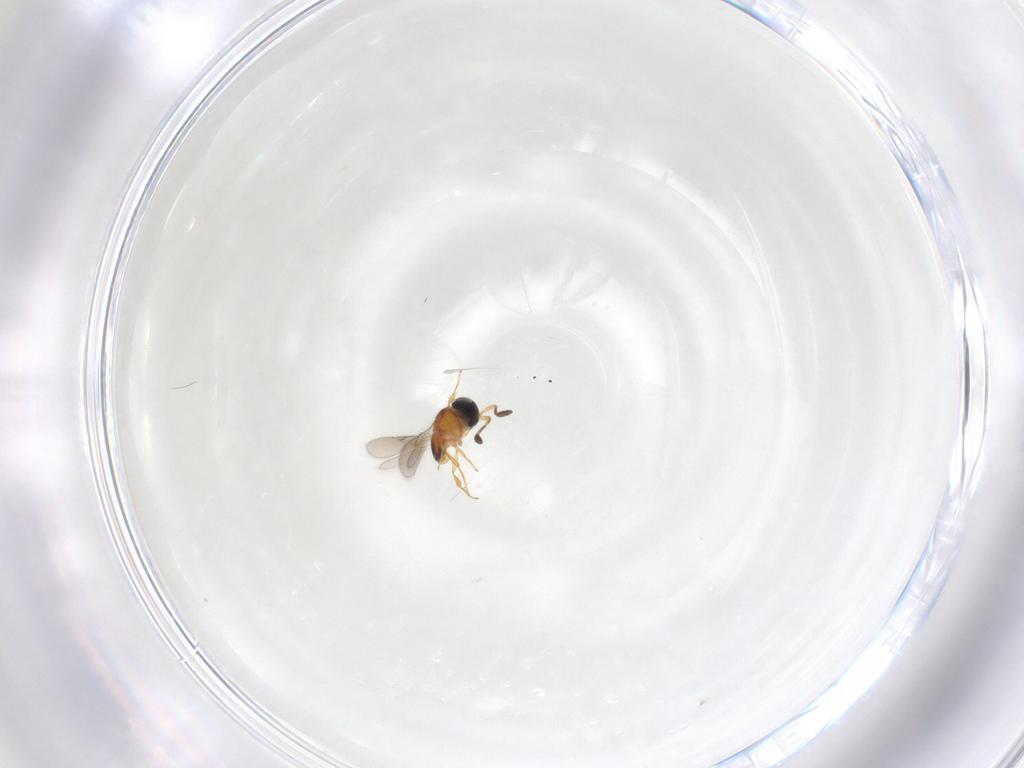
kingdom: Animalia
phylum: Arthropoda
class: Insecta
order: Hymenoptera
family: Scelionidae
